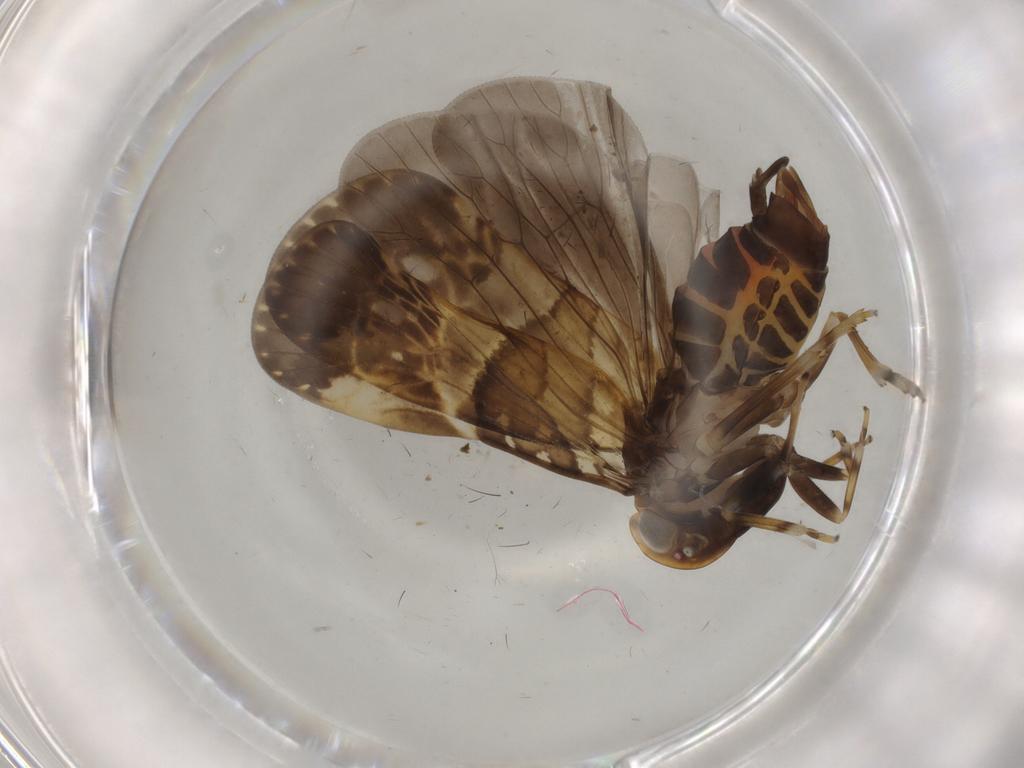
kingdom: Animalia
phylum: Arthropoda
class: Insecta
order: Hemiptera
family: Cixiidae
